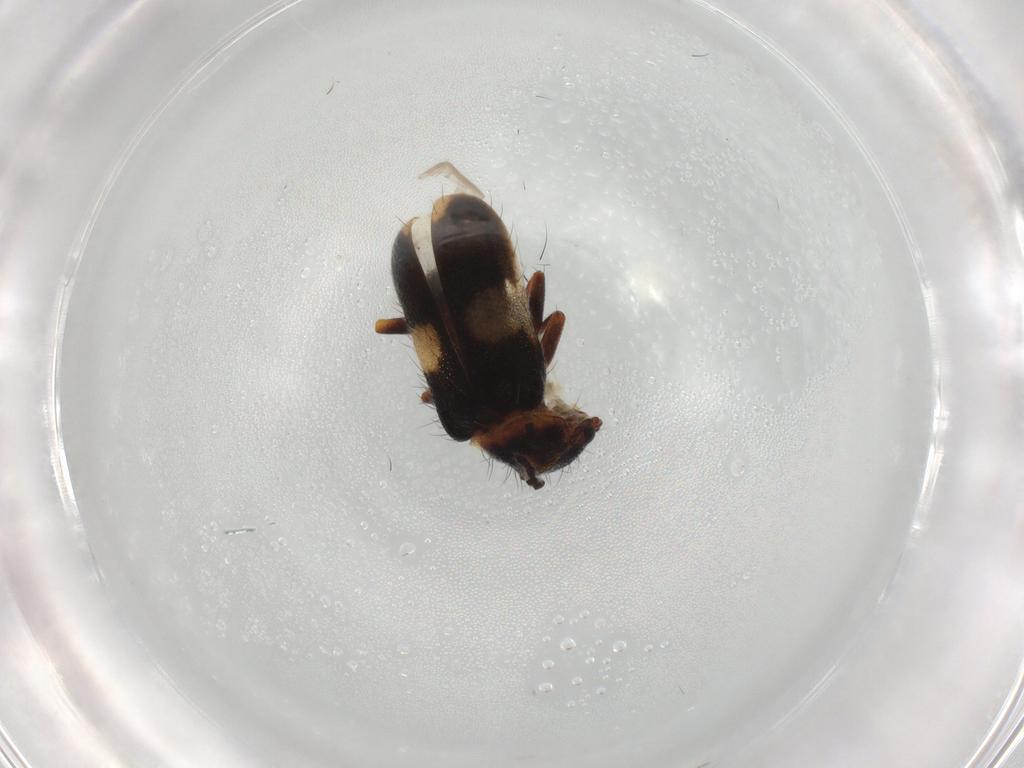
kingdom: Animalia
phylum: Arthropoda
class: Insecta
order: Coleoptera
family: Melyridae
